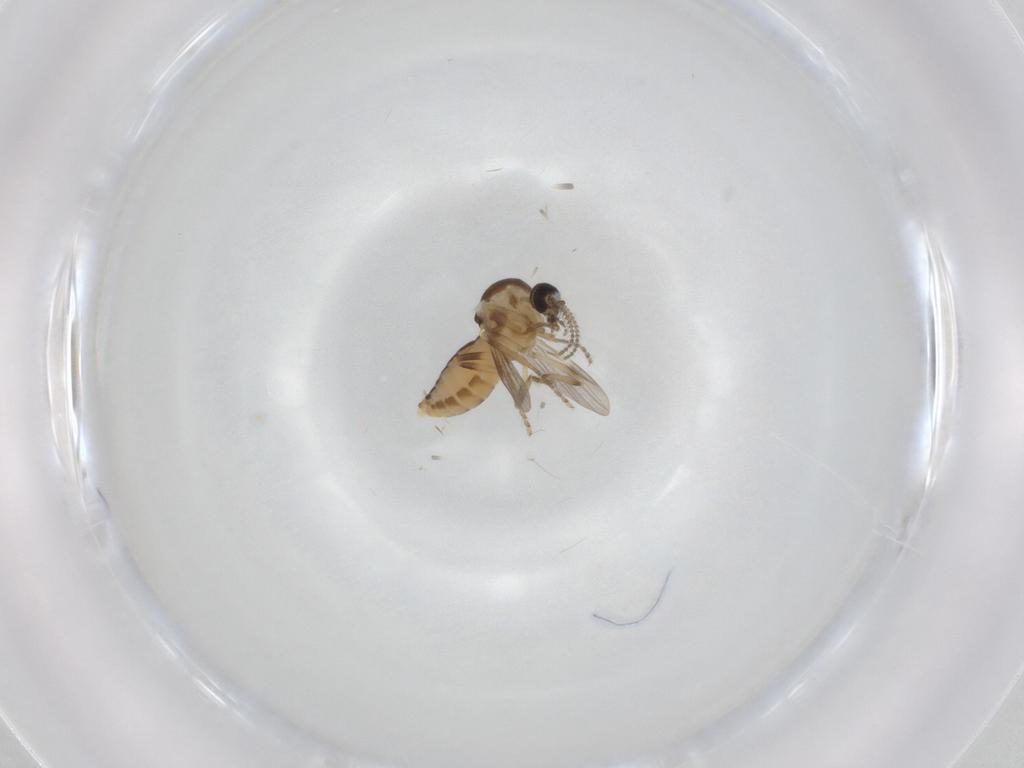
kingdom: Animalia
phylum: Arthropoda
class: Insecta
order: Diptera
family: Ceratopogonidae
